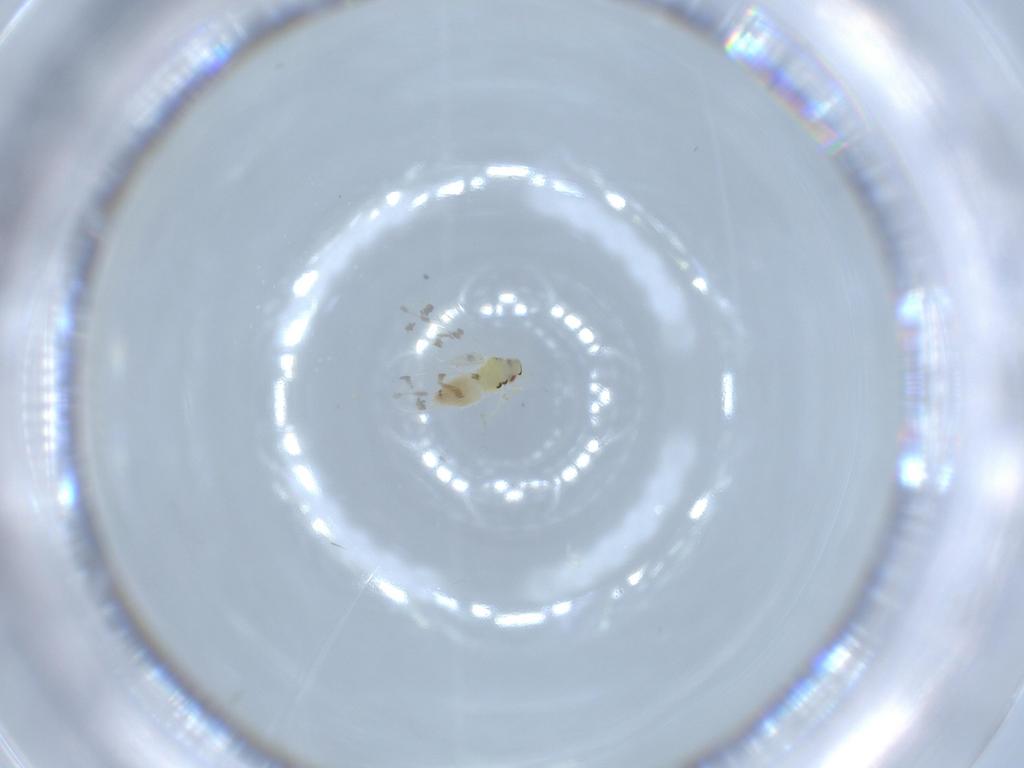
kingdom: Animalia
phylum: Arthropoda
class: Insecta
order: Hemiptera
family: Aleyrodidae
